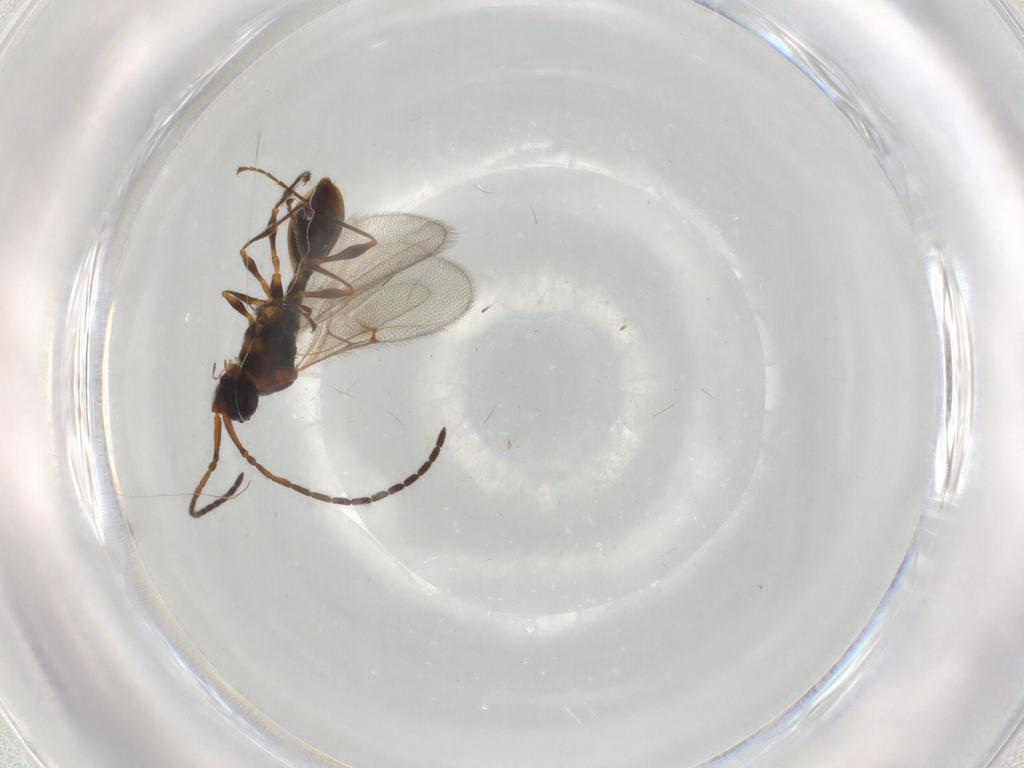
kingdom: Animalia
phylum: Arthropoda
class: Insecta
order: Hymenoptera
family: Diapriidae
